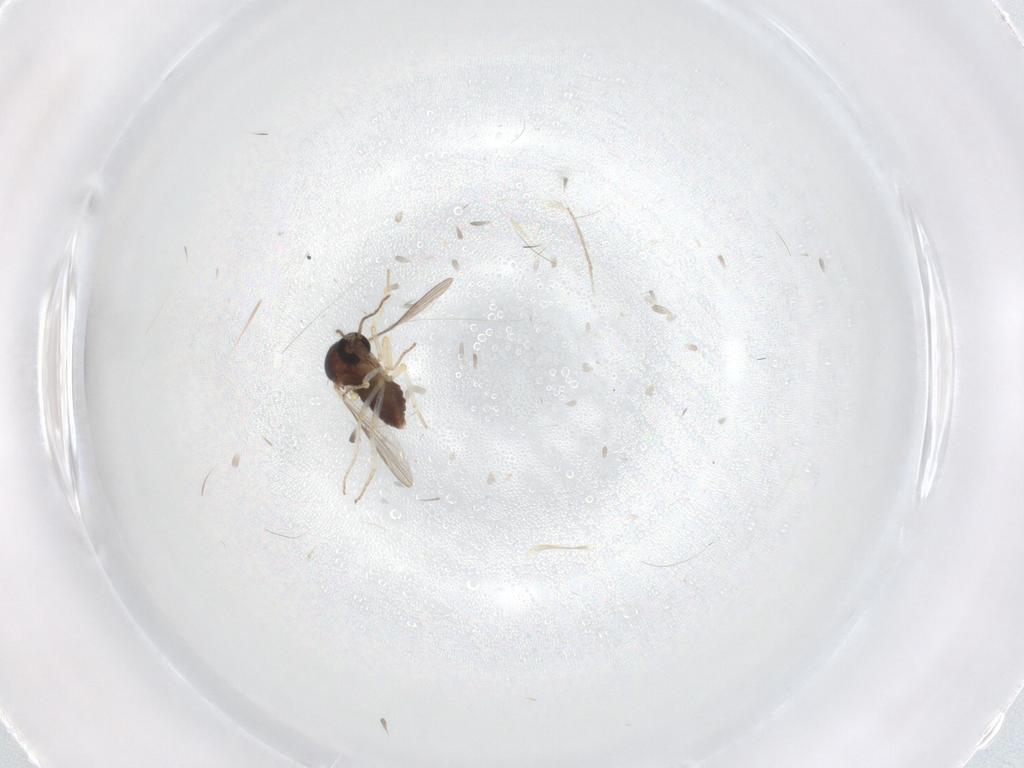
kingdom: Animalia
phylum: Arthropoda
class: Insecta
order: Diptera
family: Ceratopogonidae
